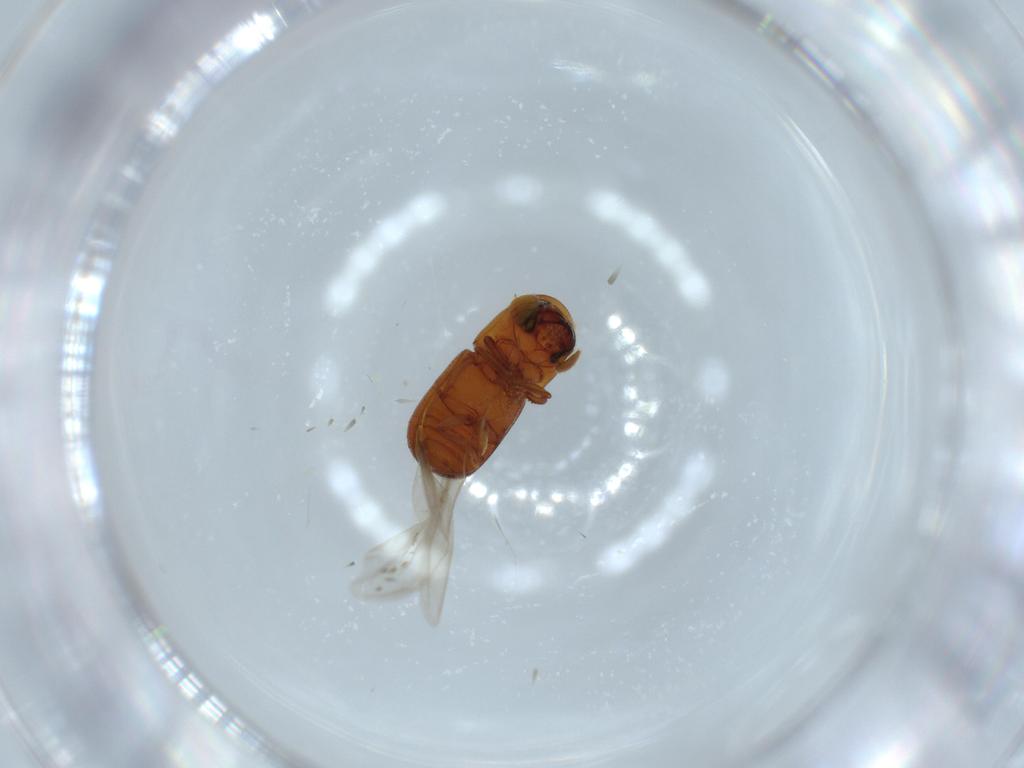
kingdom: Animalia
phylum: Arthropoda
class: Insecta
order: Coleoptera
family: Curculionidae
